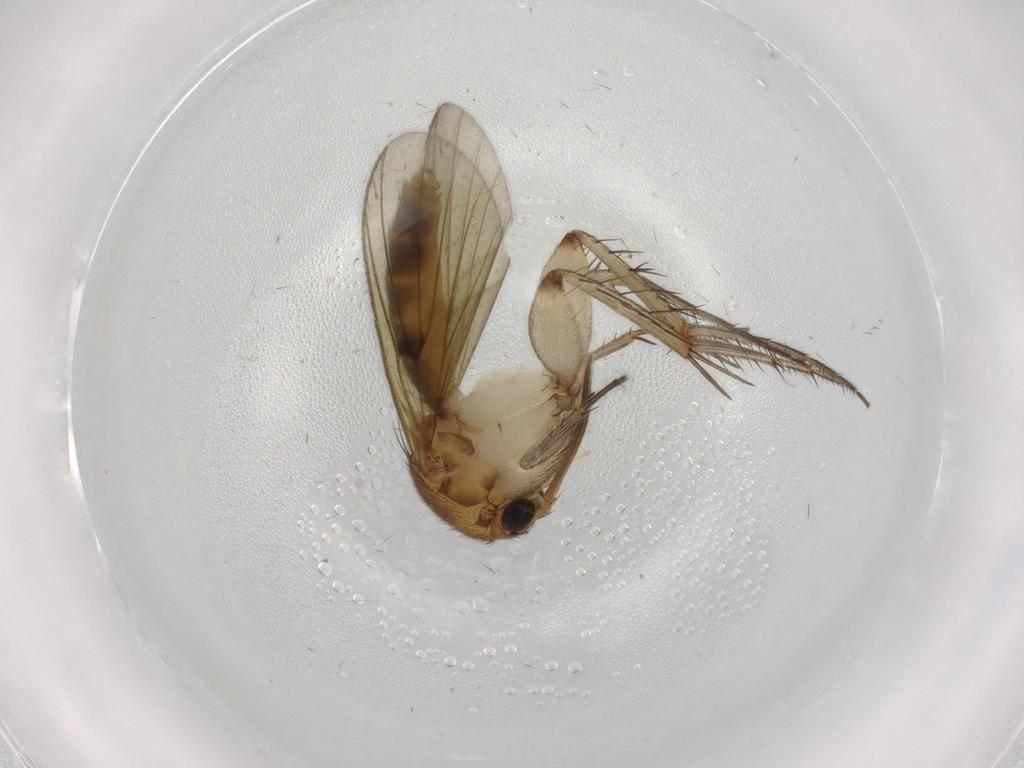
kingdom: Animalia
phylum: Arthropoda
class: Insecta
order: Diptera
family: Mycetophilidae
